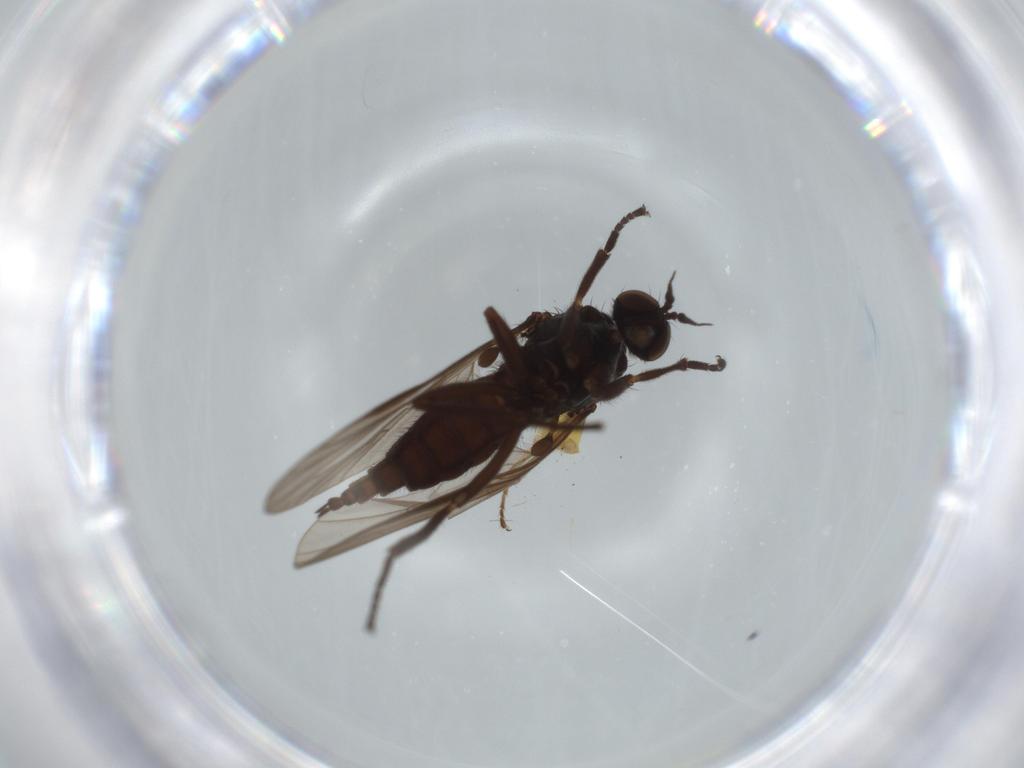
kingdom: Animalia
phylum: Arthropoda
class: Insecta
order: Diptera
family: Empididae
